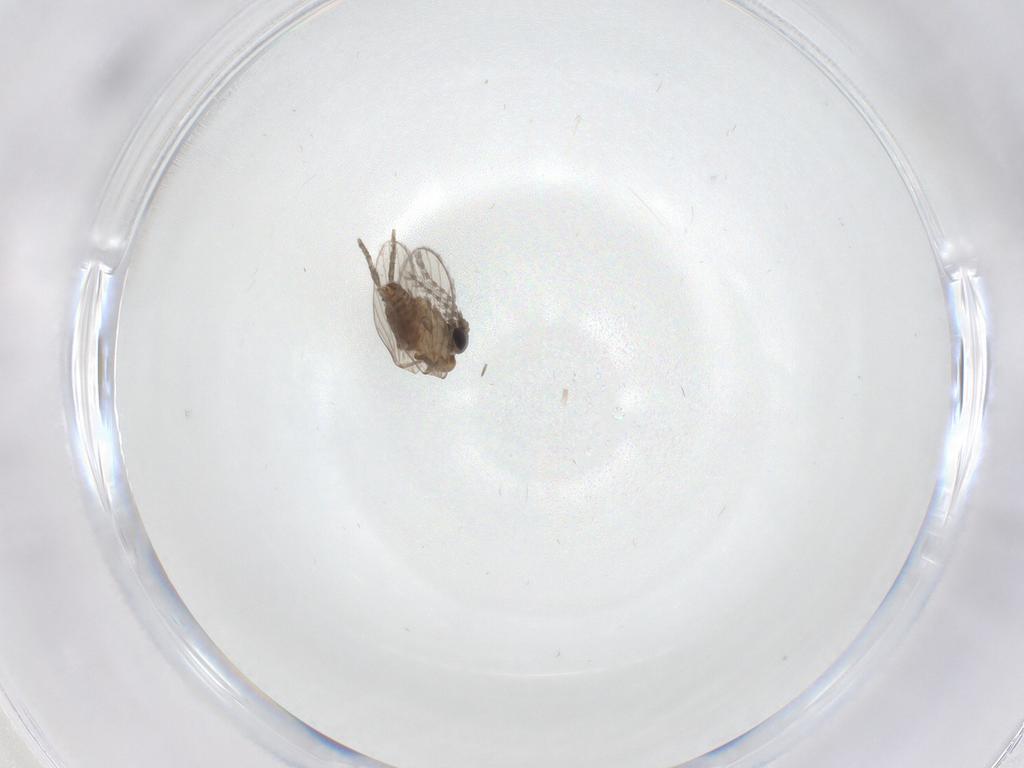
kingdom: Animalia
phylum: Arthropoda
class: Insecta
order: Diptera
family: Psychodidae
